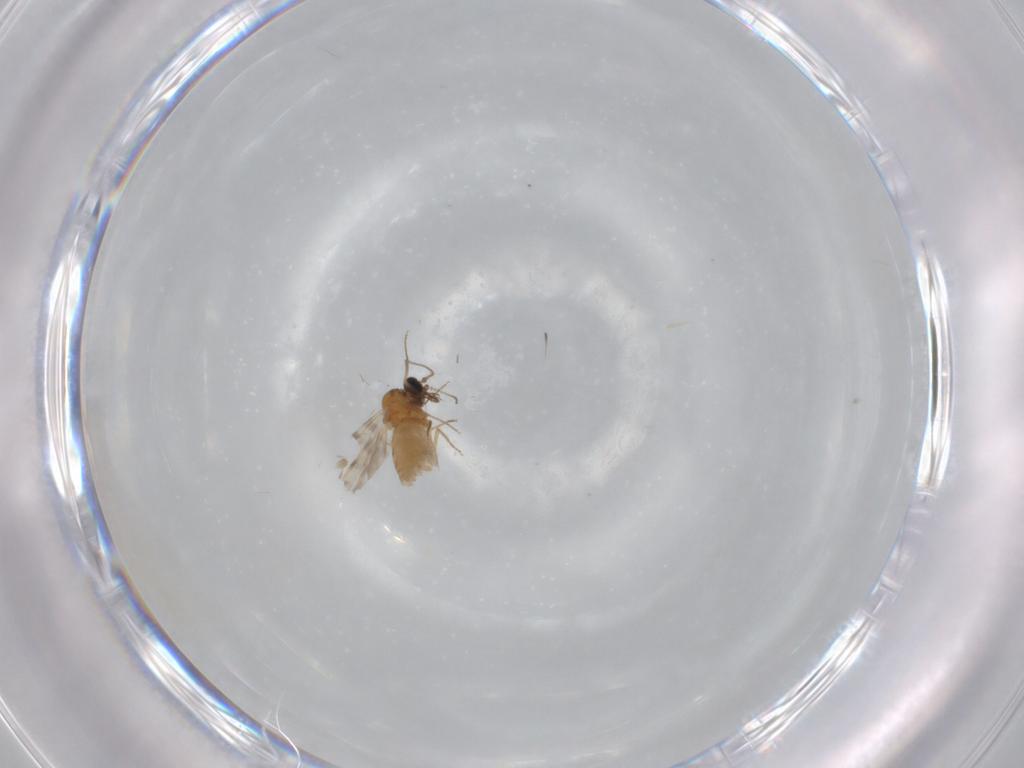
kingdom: Animalia
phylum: Arthropoda
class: Insecta
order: Diptera
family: Ceratopogonidae
